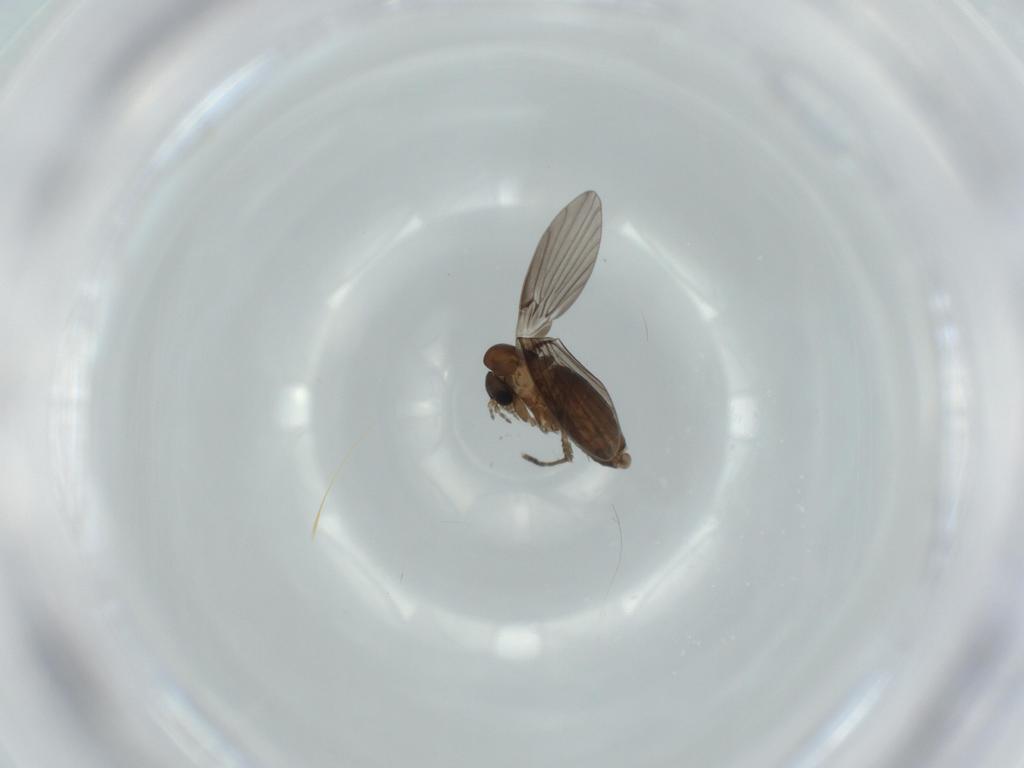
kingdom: Animalia
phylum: Arthropoda
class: Insecta
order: Diptera
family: Psychodidae
